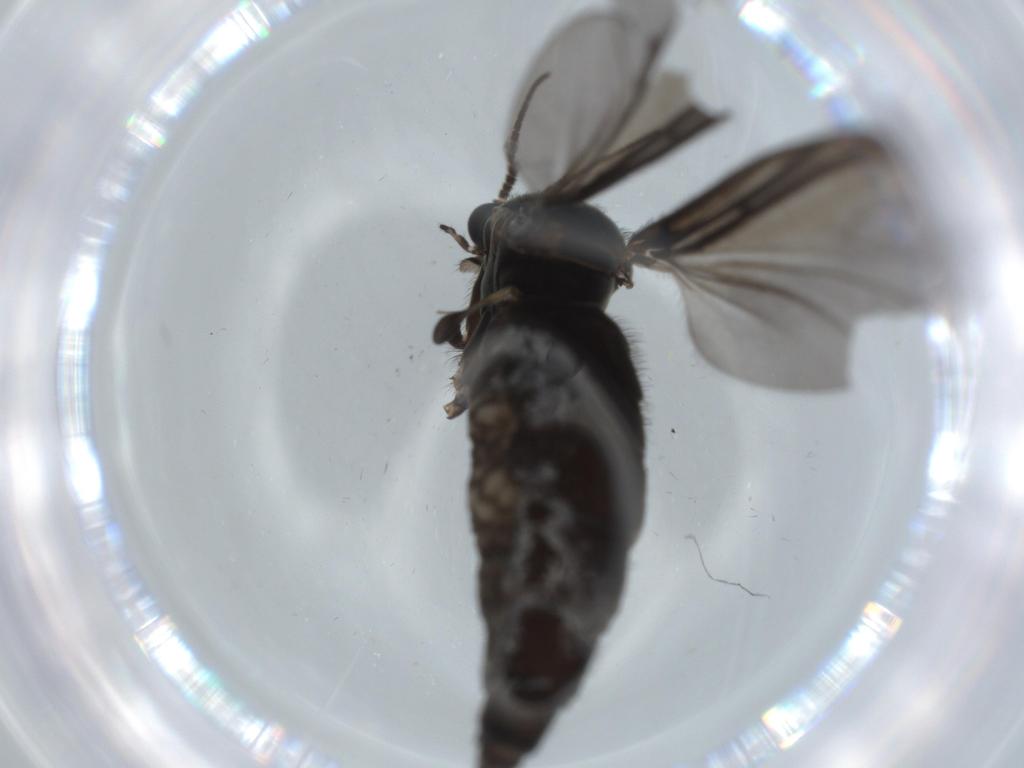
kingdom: Animalia
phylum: Arthropoda
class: Insecta
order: Diptera
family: Sciaridae
